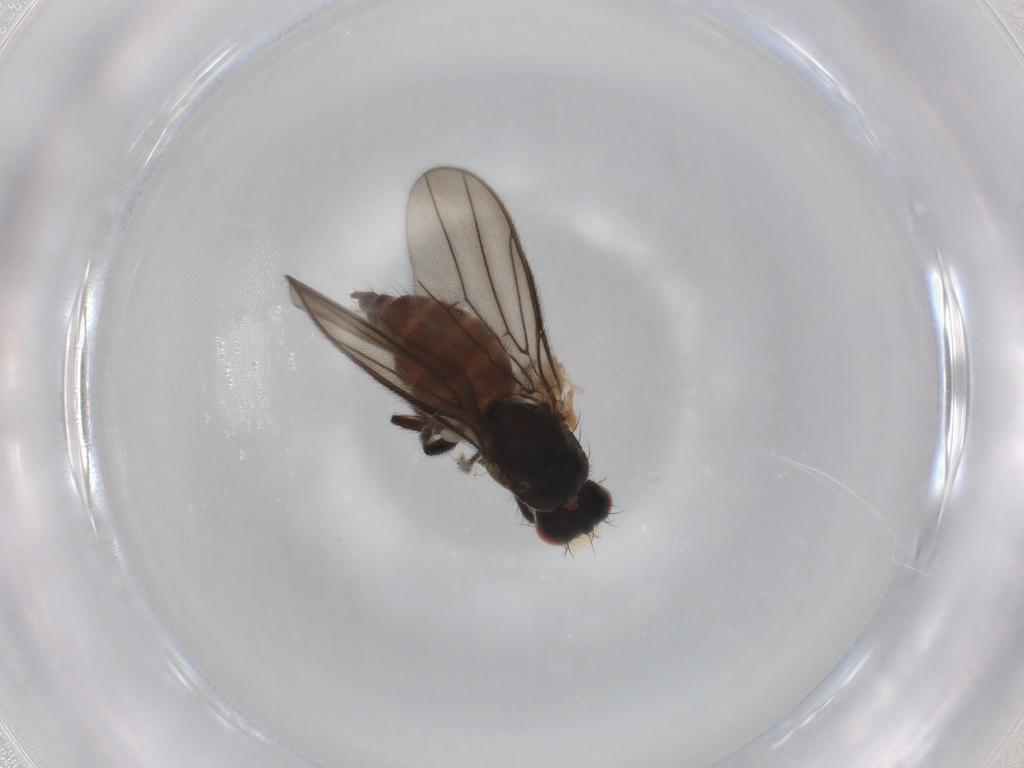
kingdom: Animalia
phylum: Arthropoda
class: Insecta
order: Diptera
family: Chloropidae
